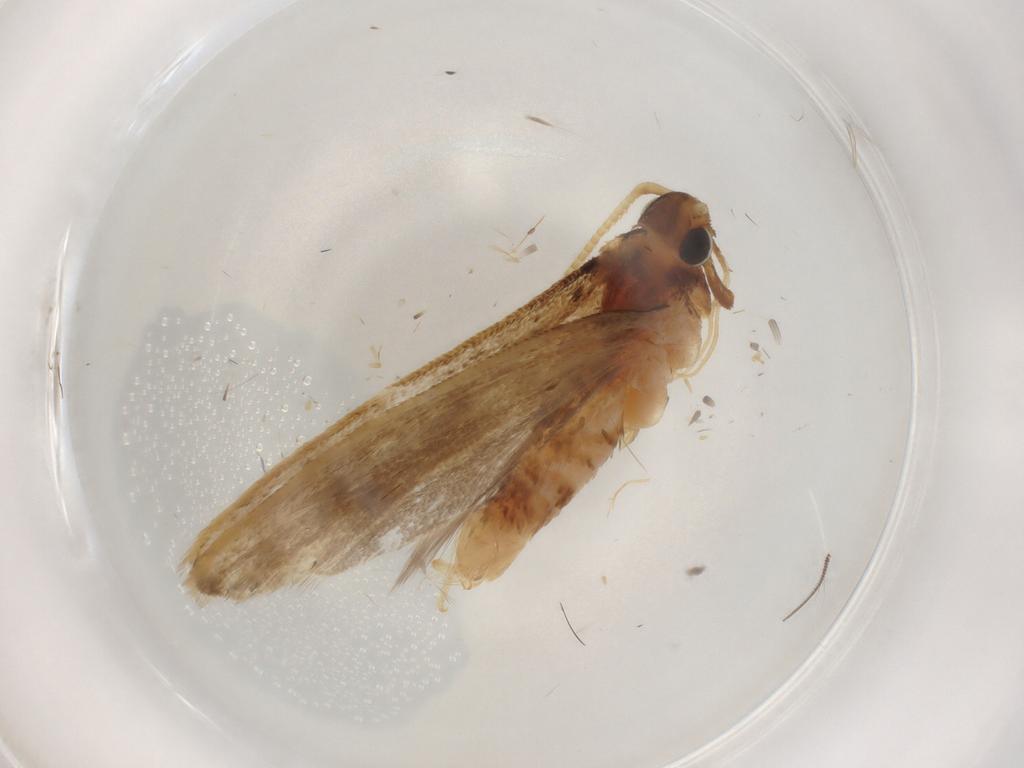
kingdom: Animalia
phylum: Arthropoda
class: Insecta
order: Lepidoptera
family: Lecithoceridae
